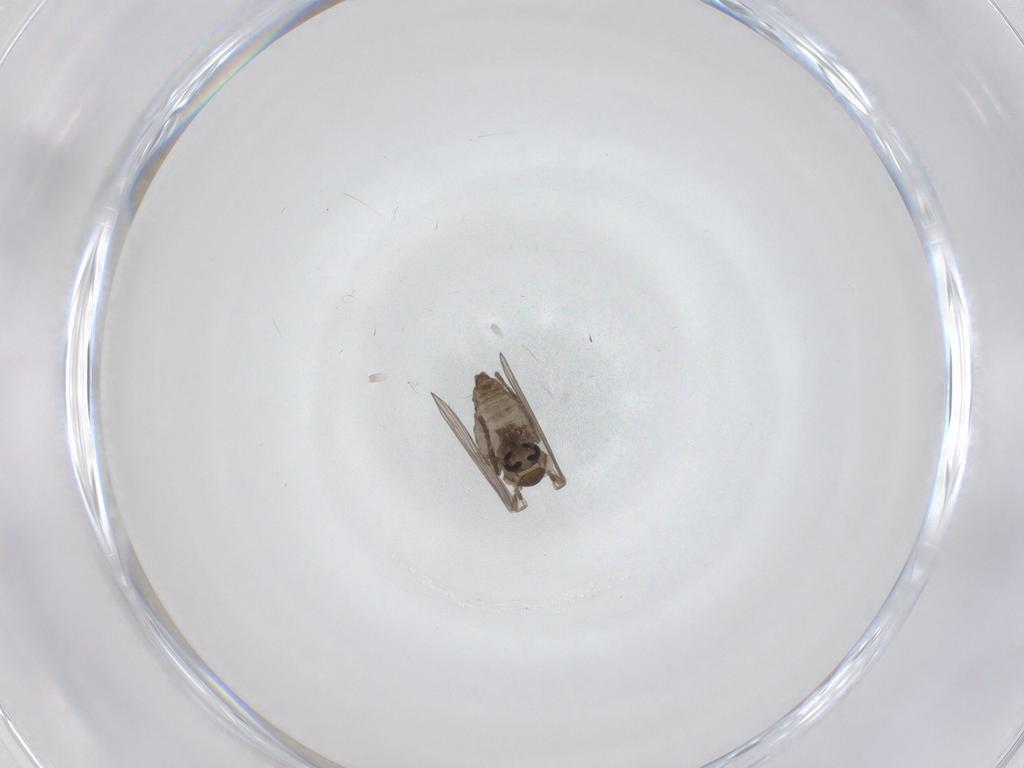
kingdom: Animalia
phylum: Arthropoda
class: Insecta
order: Diptera
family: Psychodidae
